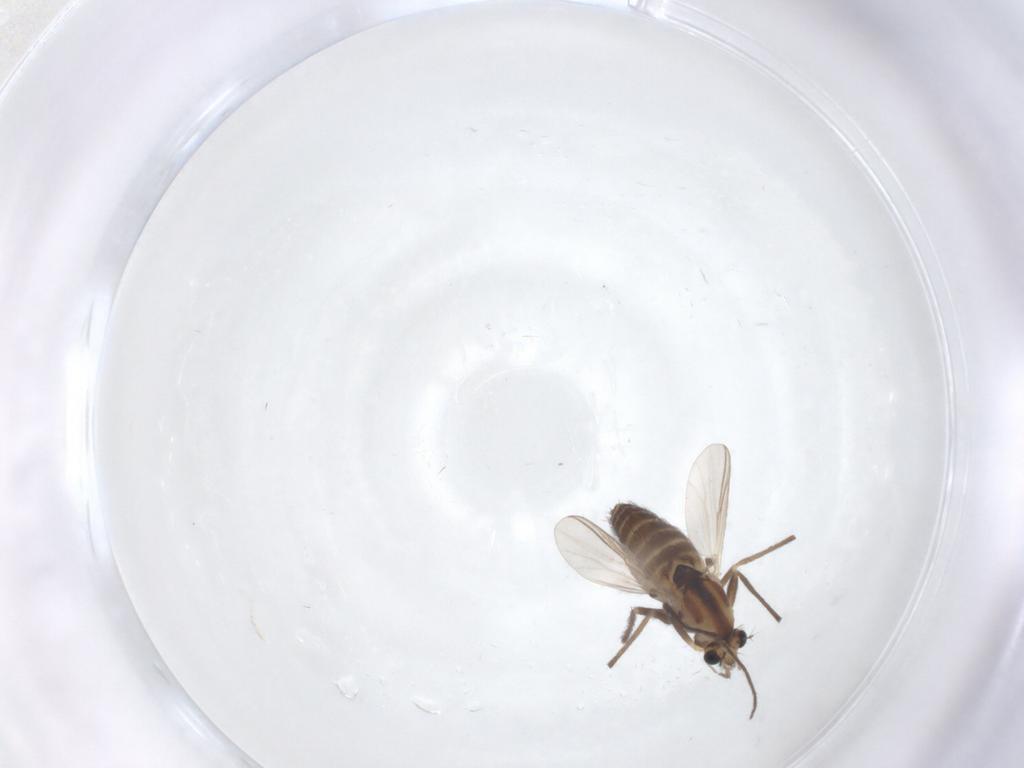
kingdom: Animalia
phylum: Arthropoda
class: Insecta
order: Diptera
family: Chironomidae
